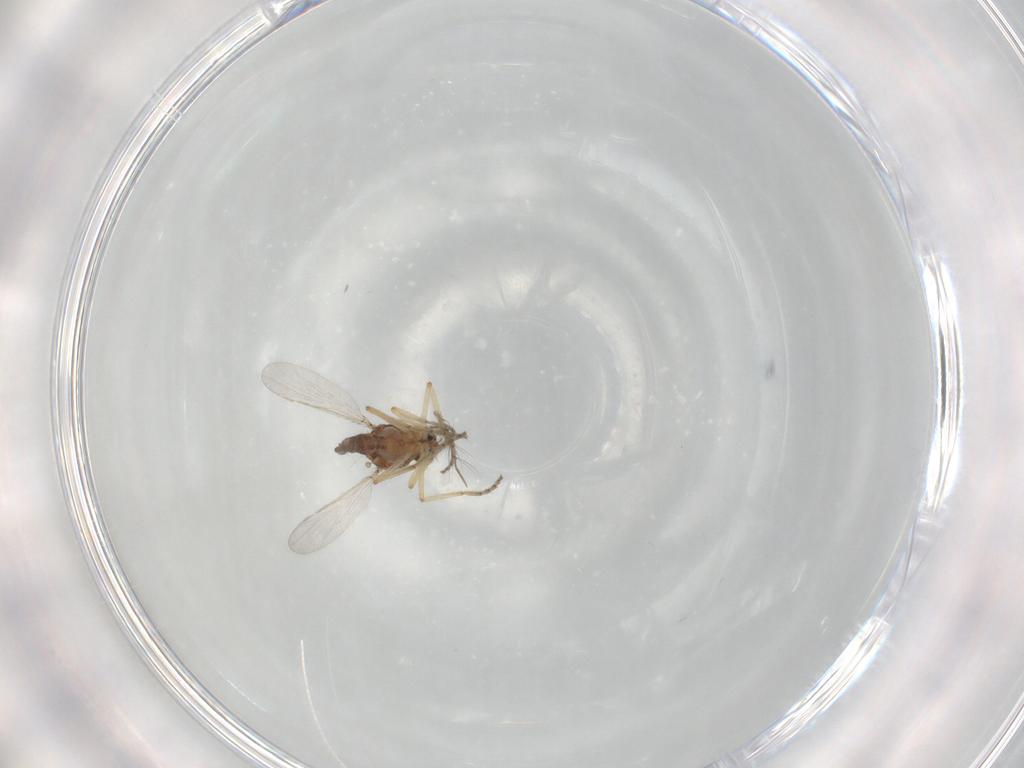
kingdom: Animalia
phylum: Arthropoda
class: Insecta
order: Diptera
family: Ceratopogonidae
